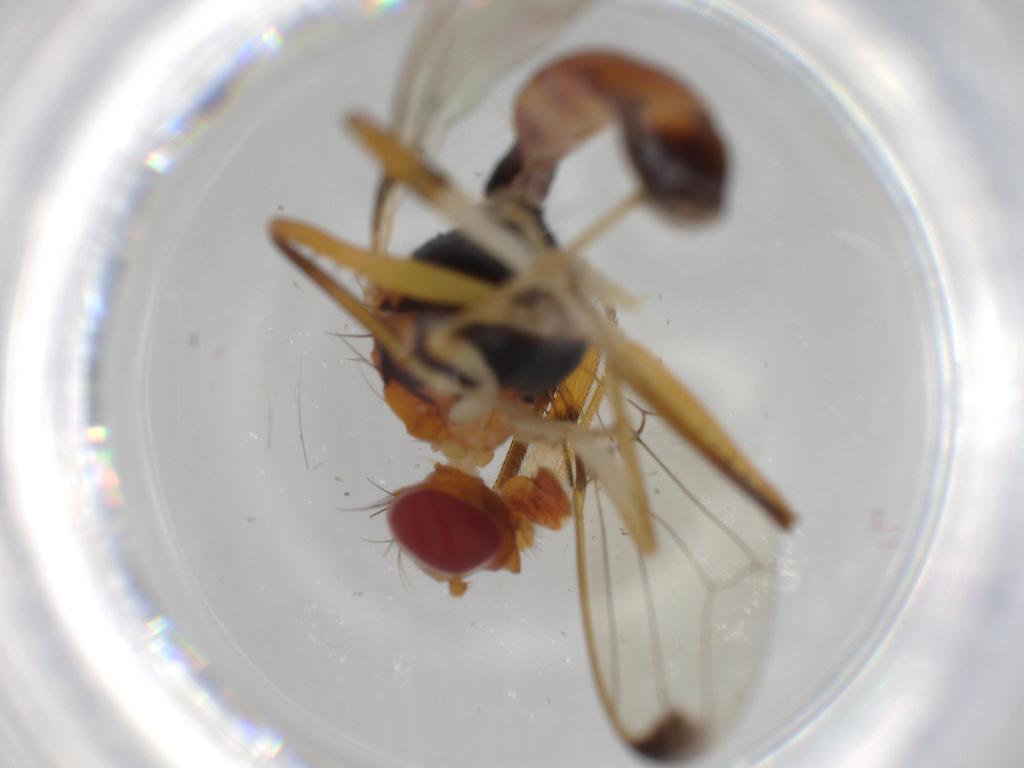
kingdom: Animalia
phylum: Arthropoda
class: Insecta
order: Diptera
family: Richardiidae
